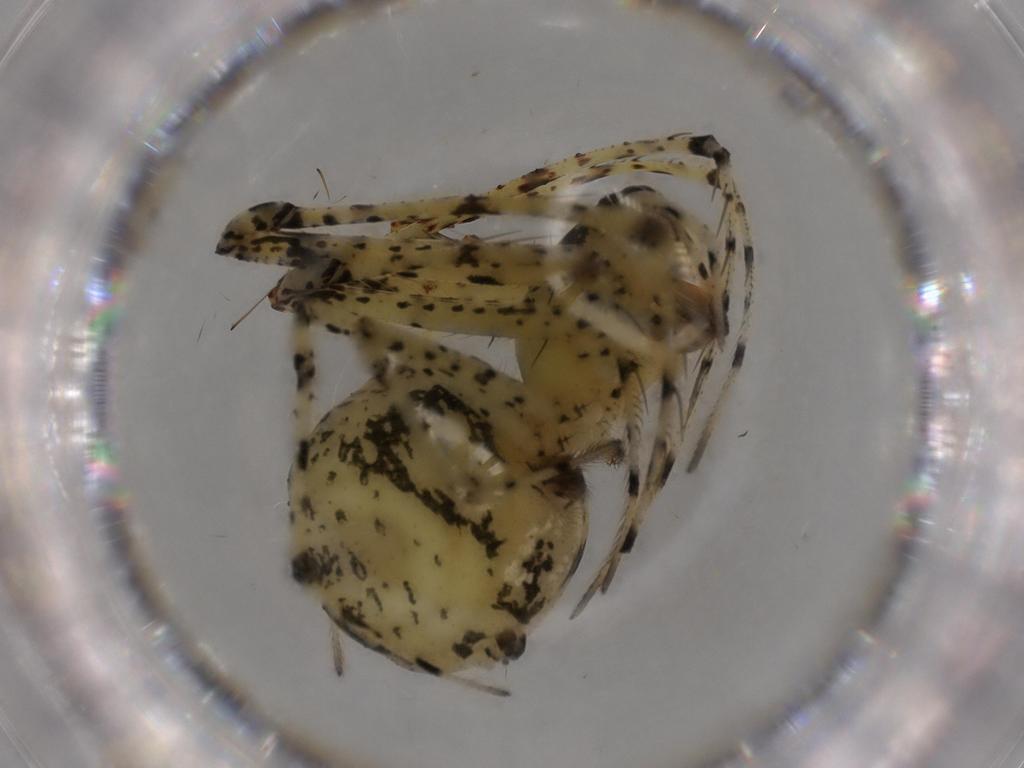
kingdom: Animalia
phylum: Arthropoda
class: Arachnida
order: Araneae
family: Mimetidae
